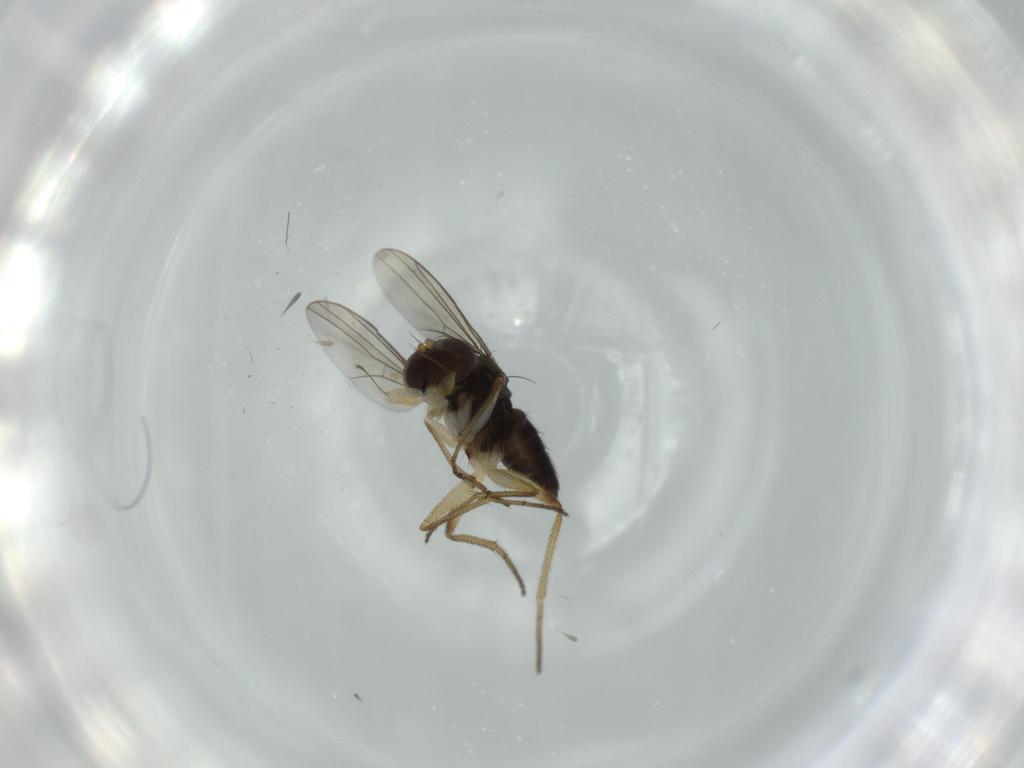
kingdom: Animalia
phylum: Arthropoda
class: Insecta
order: Diptera
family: Dolichopodidae
